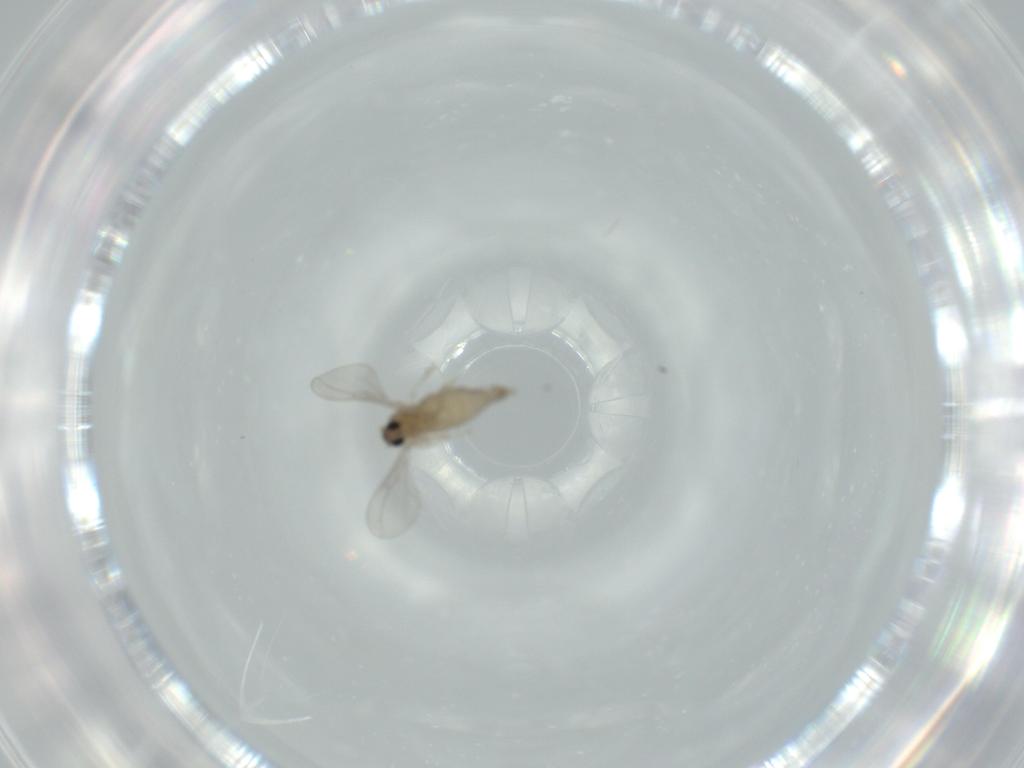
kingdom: Animalia
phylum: Arthropoda
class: Insecta
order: Diptera
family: Cecidomyiidae
